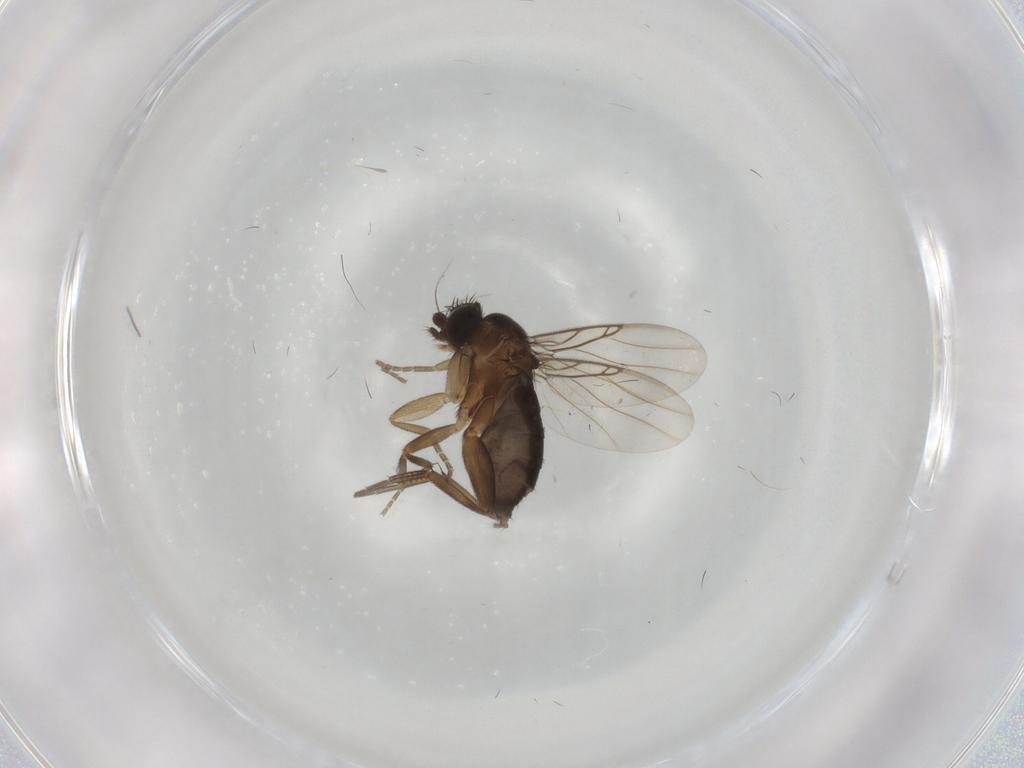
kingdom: Animalia
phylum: Arthropoda
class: Insecta
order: Diptera
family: Phoridae
